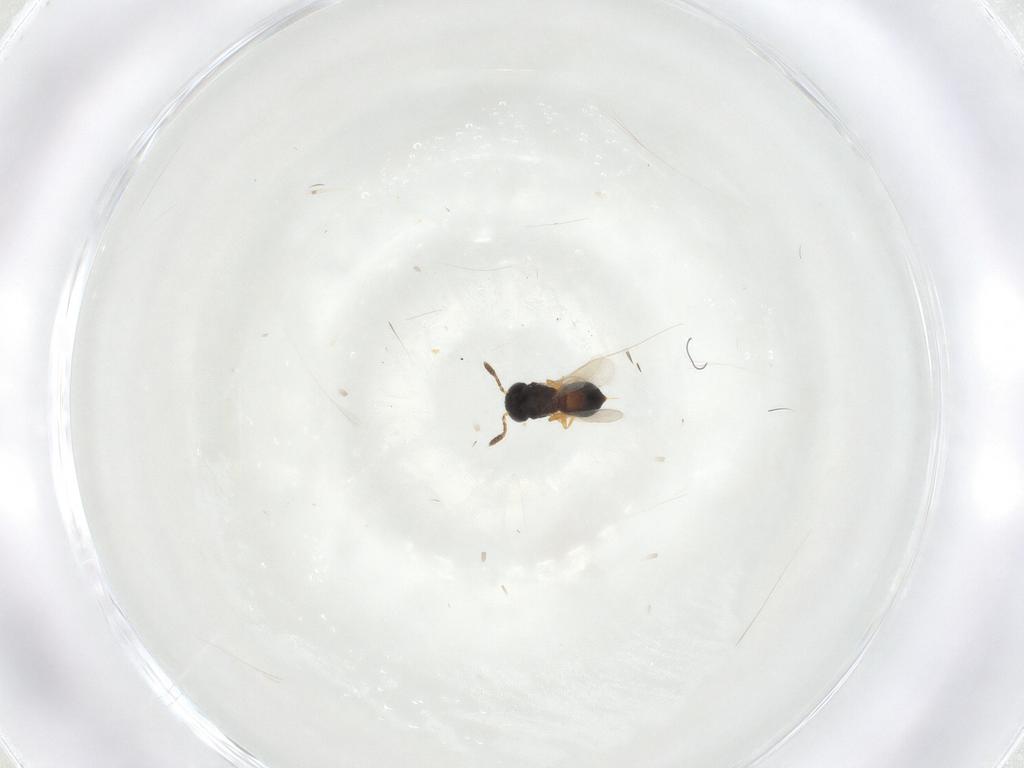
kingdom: Animalia
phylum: Arthropoda
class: Insecta
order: Hymenoptera
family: Scelionidae
